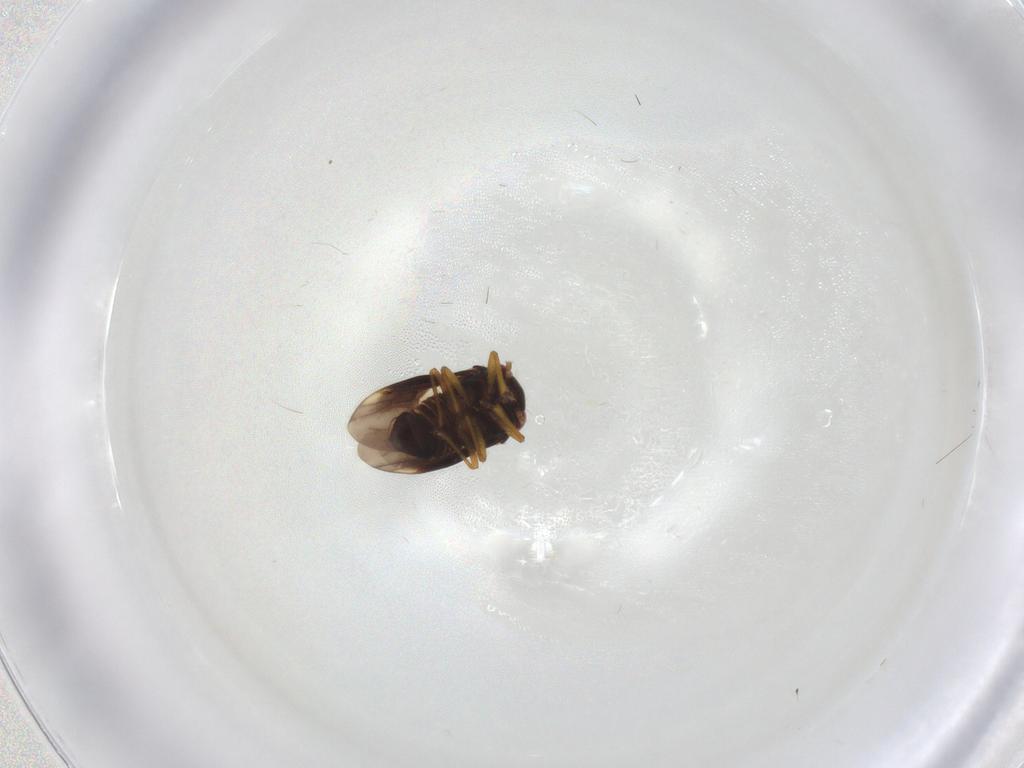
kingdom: Animalia
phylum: Arthropoda
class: Insecta
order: Hemiptera
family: Schizopteridae
